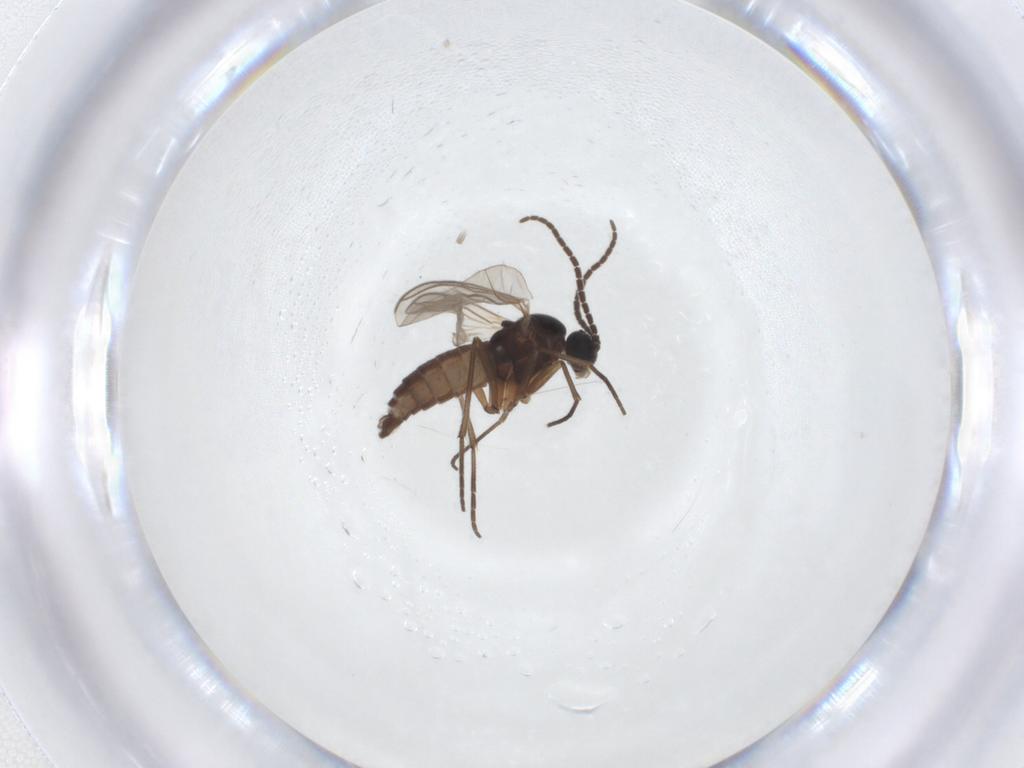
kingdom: Animalia
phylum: Arthropoda
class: Insecta
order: Diptera
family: Sciaridae
